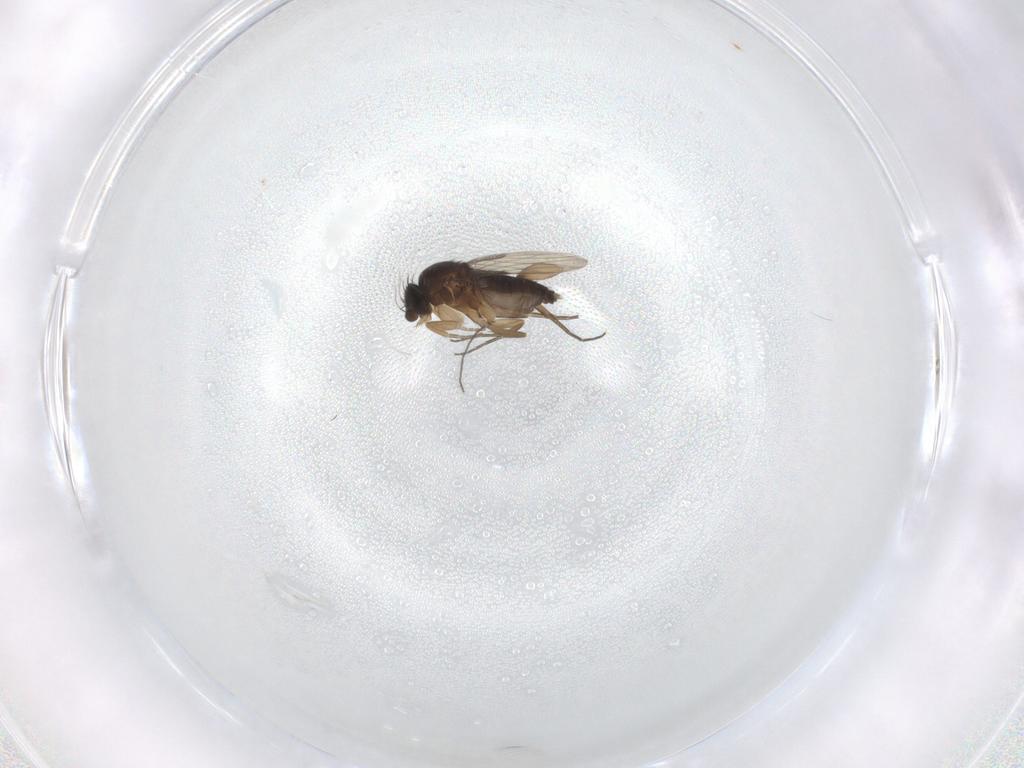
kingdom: Animalia
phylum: Arthropoda
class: Insecta
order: Diptera
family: Phoridae
